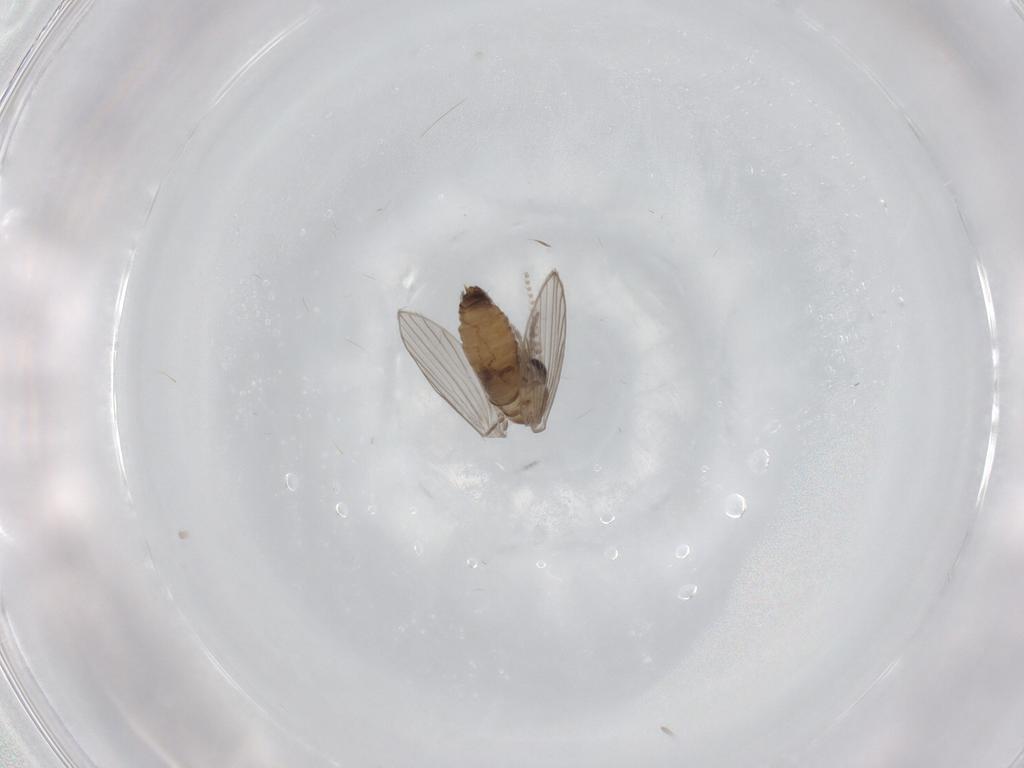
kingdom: Animalia
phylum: Arthropoda
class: Insecta
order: Diptera
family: Psychodidae
